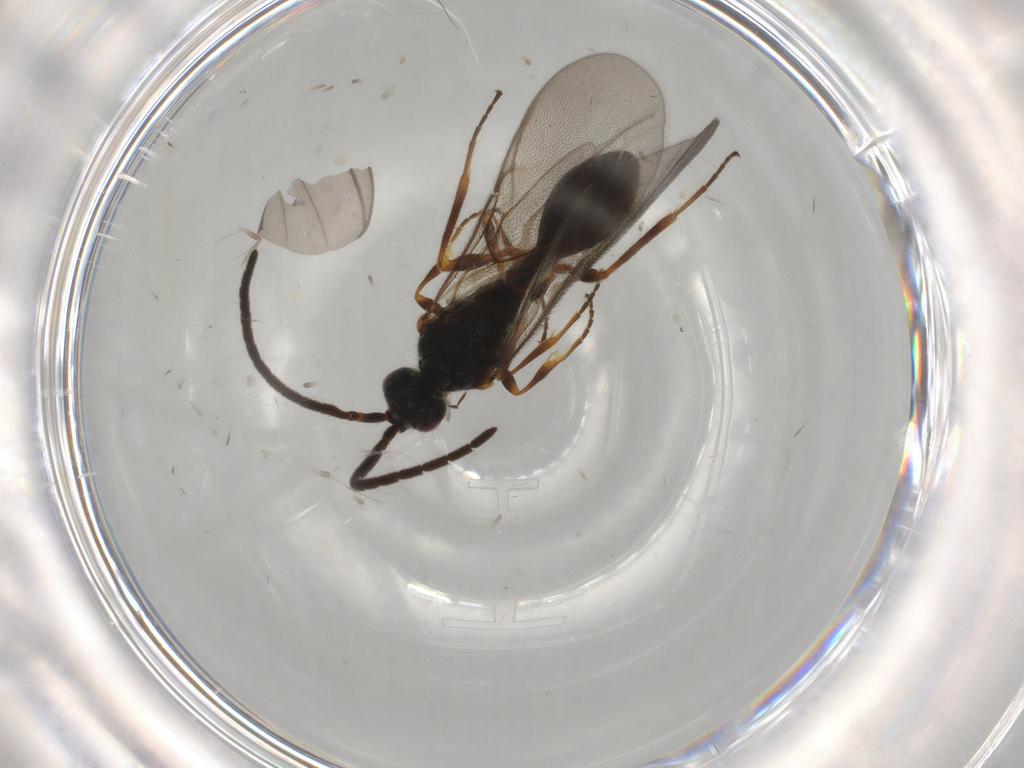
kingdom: Animalia
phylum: Arthropoda
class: Insecta
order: Hymenoptera
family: Diapriidae
